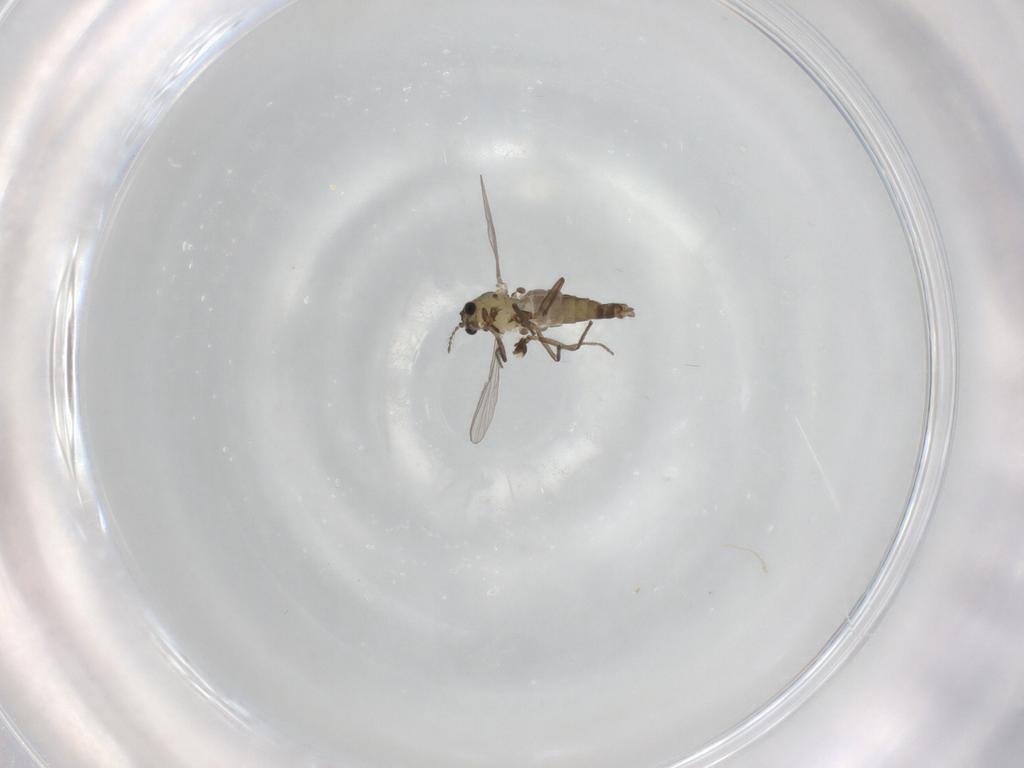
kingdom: Animalia
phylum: Arthropoda
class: Insecta
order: Diptera
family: Chironomidae
